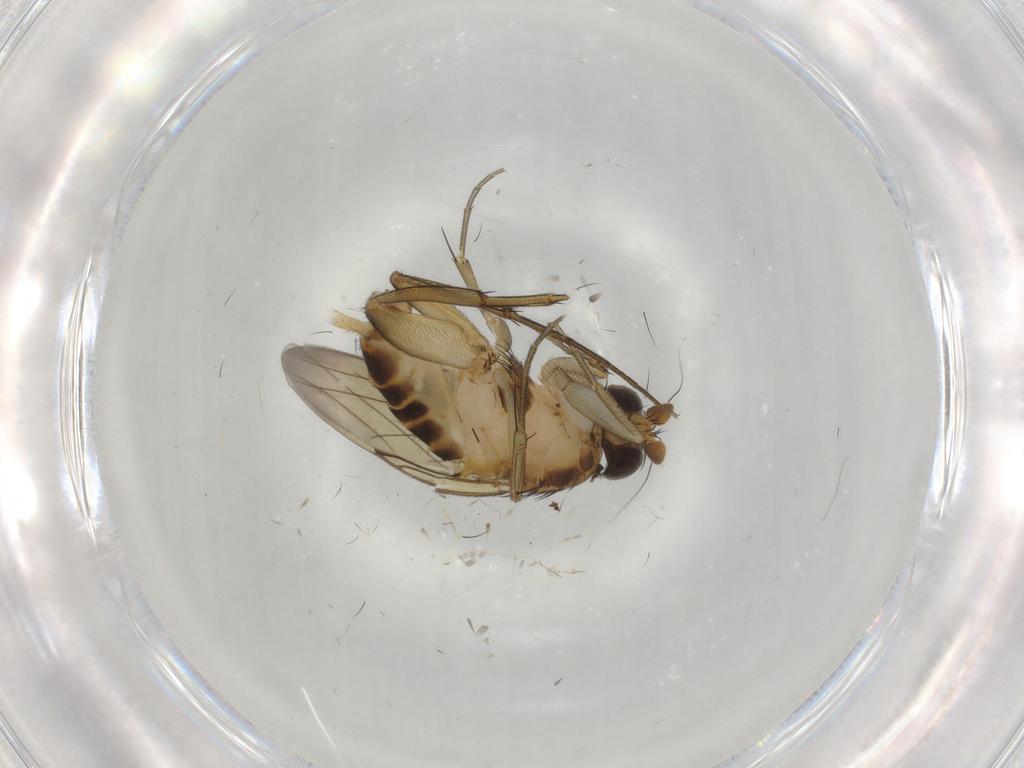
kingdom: Animalia
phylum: Arthropoda
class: Insecta
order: Diptera
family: Phoridae
